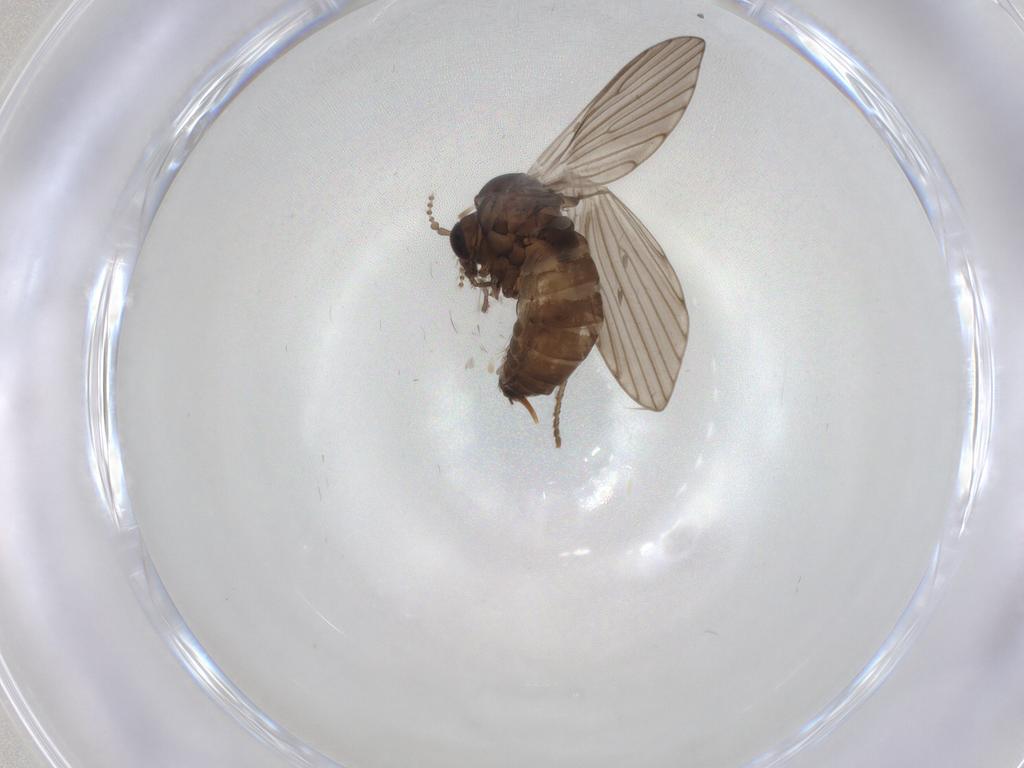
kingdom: Animalia
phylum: Arthropoda
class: Insecta
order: Diptera
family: Psychodidae
